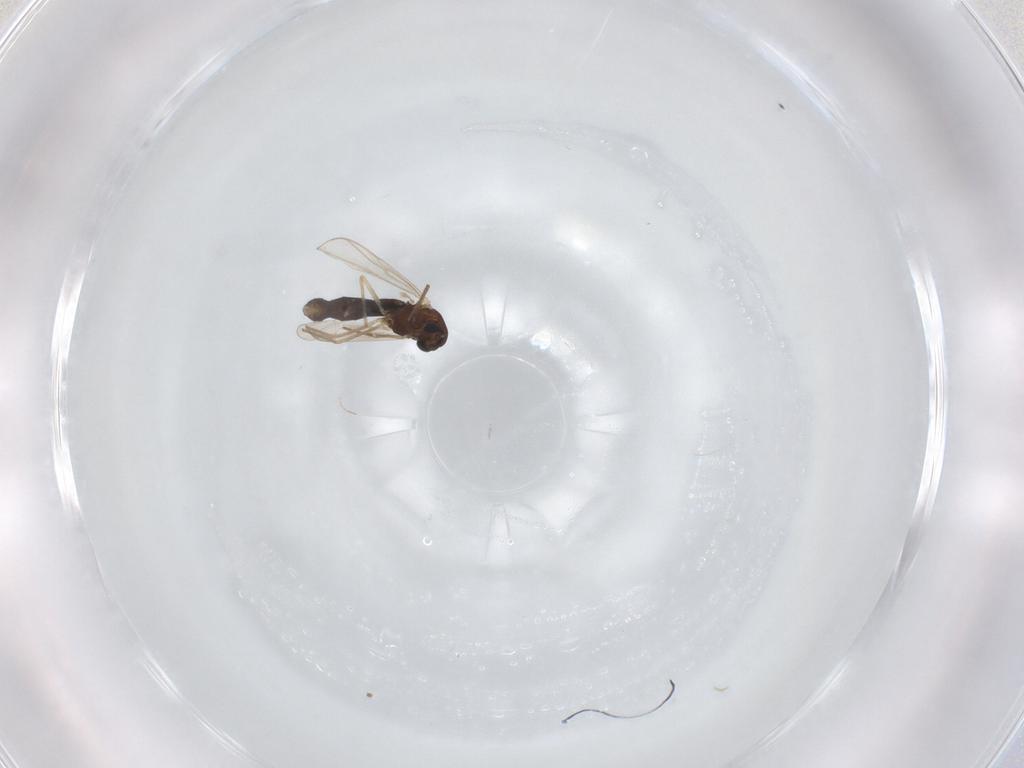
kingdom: Animalia
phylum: Arthropoda
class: Insecta
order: Diptera
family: Chironomidae
